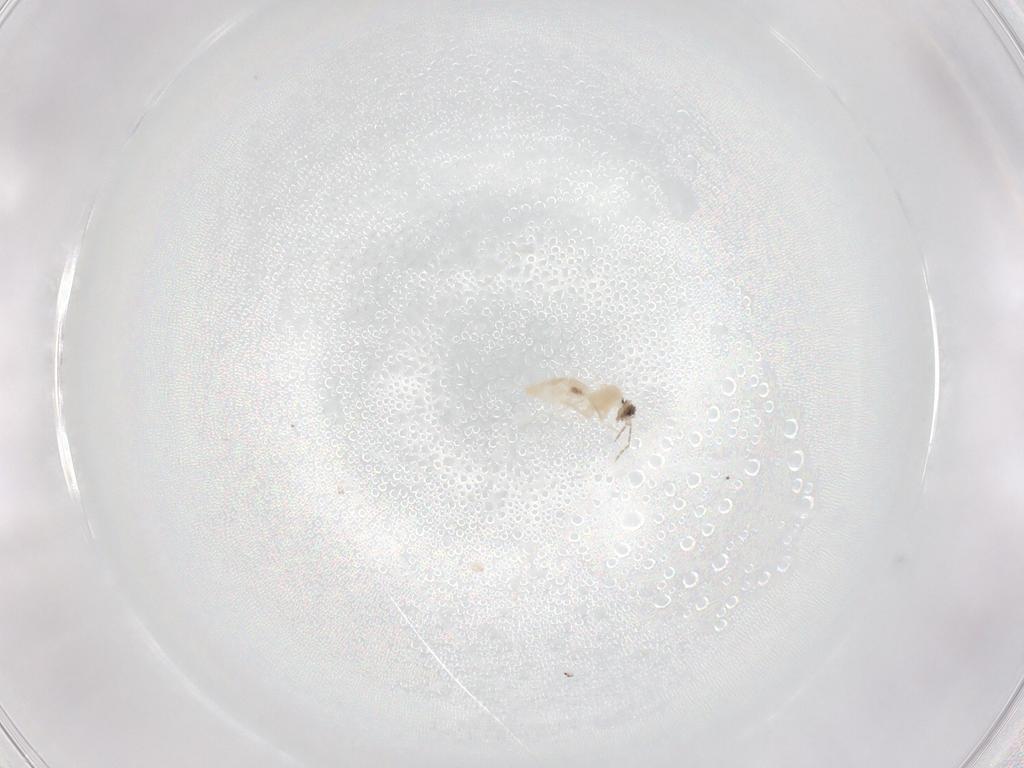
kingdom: Animalia
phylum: Arthropoda
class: Insecta
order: Diptera
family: Cecidomyiidae
